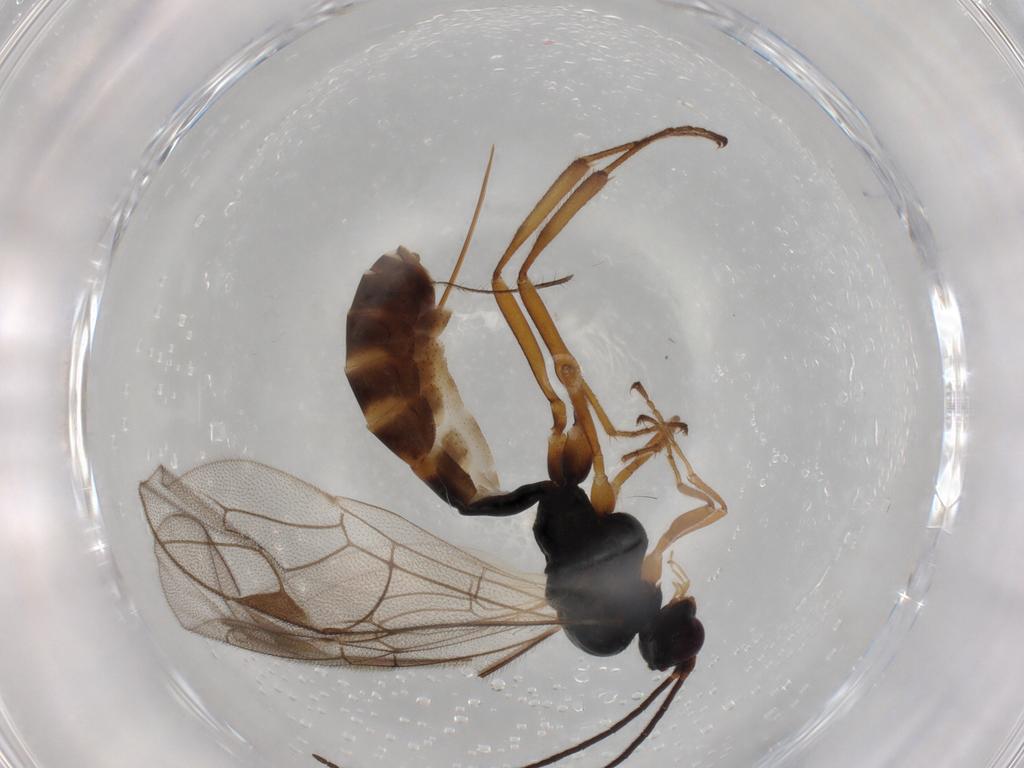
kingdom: Animalia
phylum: Arthropoda
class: Insecta
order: Hymenoptera
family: Ichneumonidae
